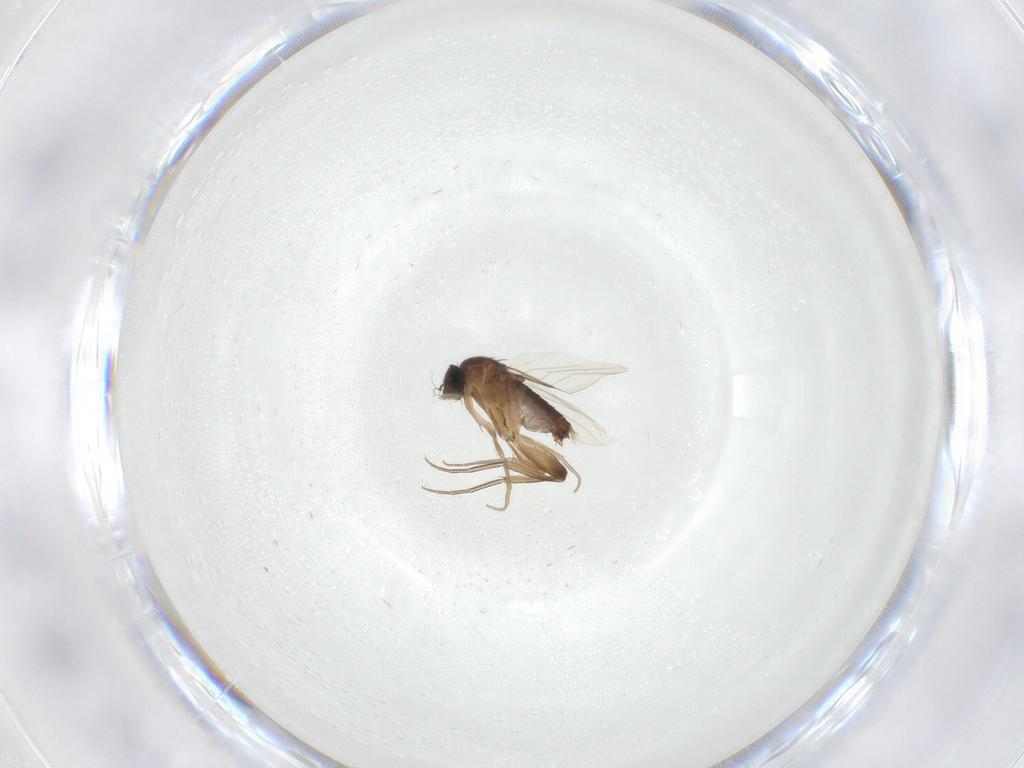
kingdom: Animalia
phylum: Arthropoda
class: Insecta
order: Diptera
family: Phoridae
